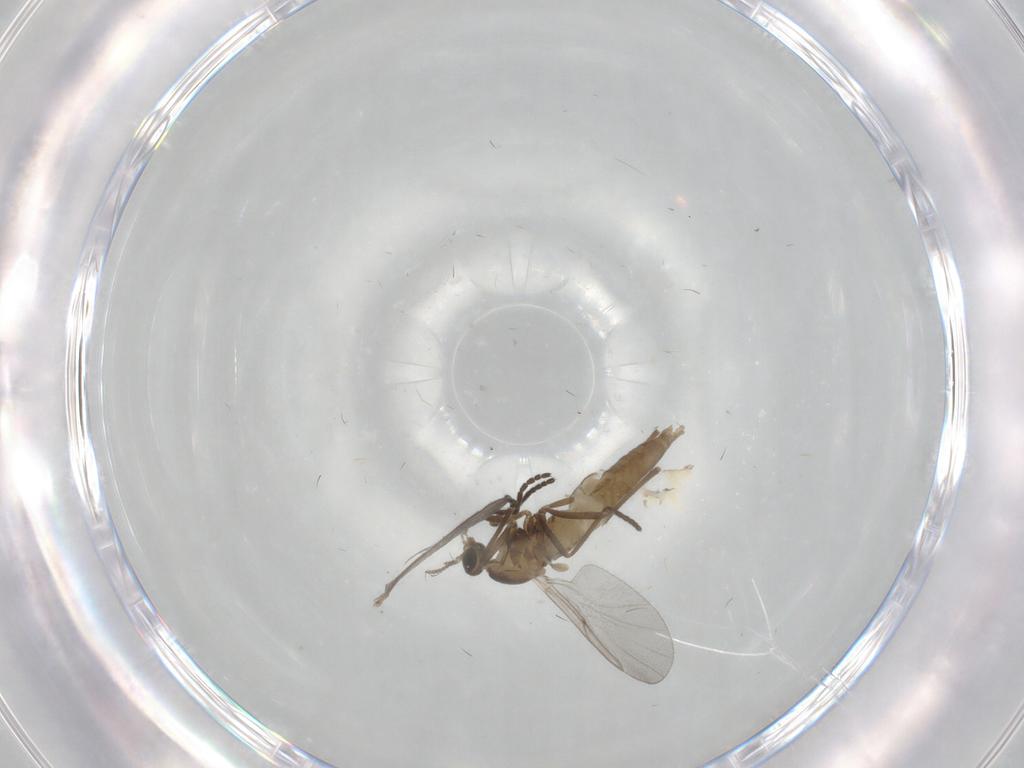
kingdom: Animalia
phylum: Arthropoda
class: Insecta
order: Diptera
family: Cecidomyiidae
